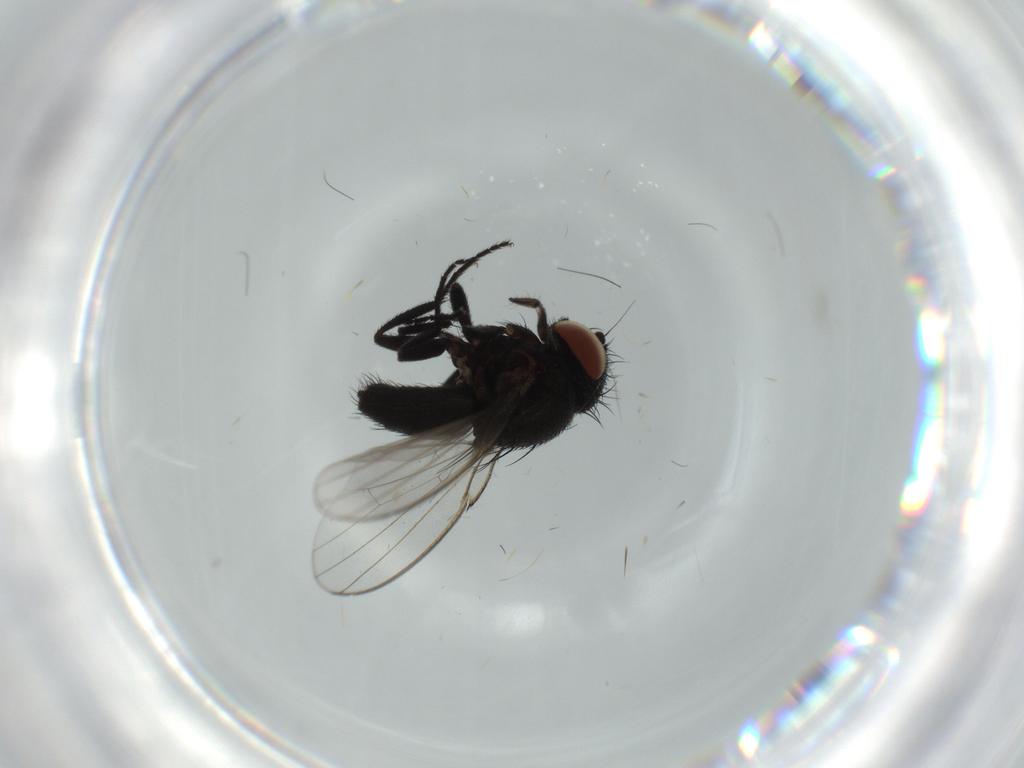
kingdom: Animalia
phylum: Arthropoda
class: Insecta
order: Diptera
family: Milichiidae
